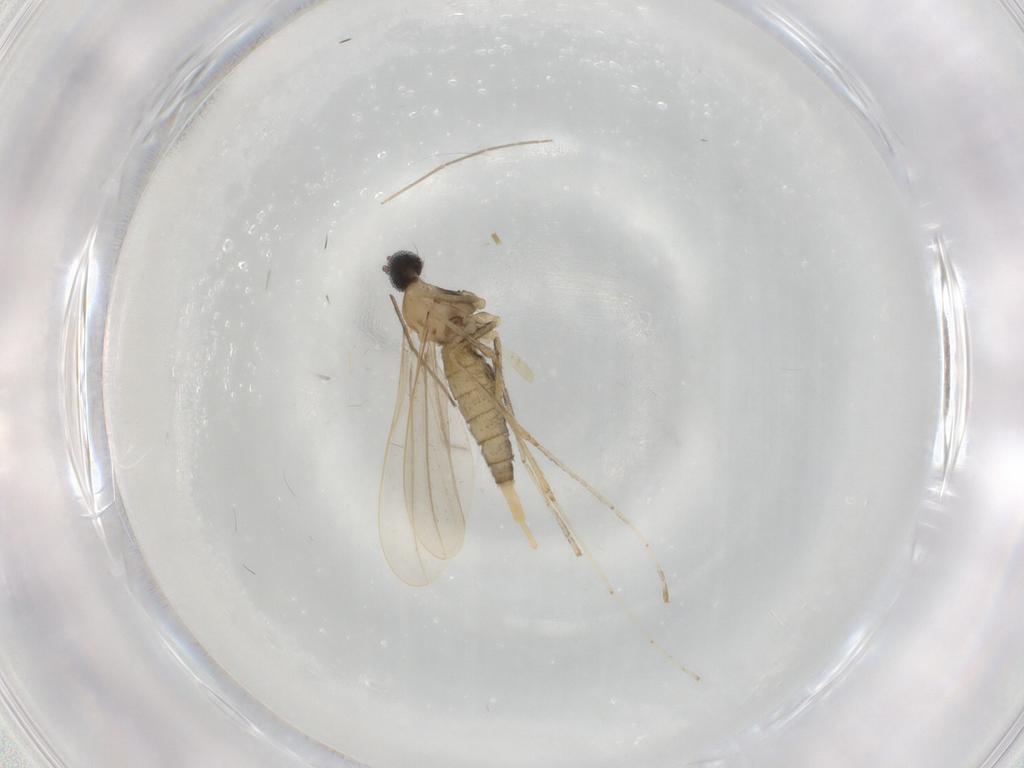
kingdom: Animalia
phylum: Arthropoda
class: Insecta
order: Diptera
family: Cecidomyiidae
